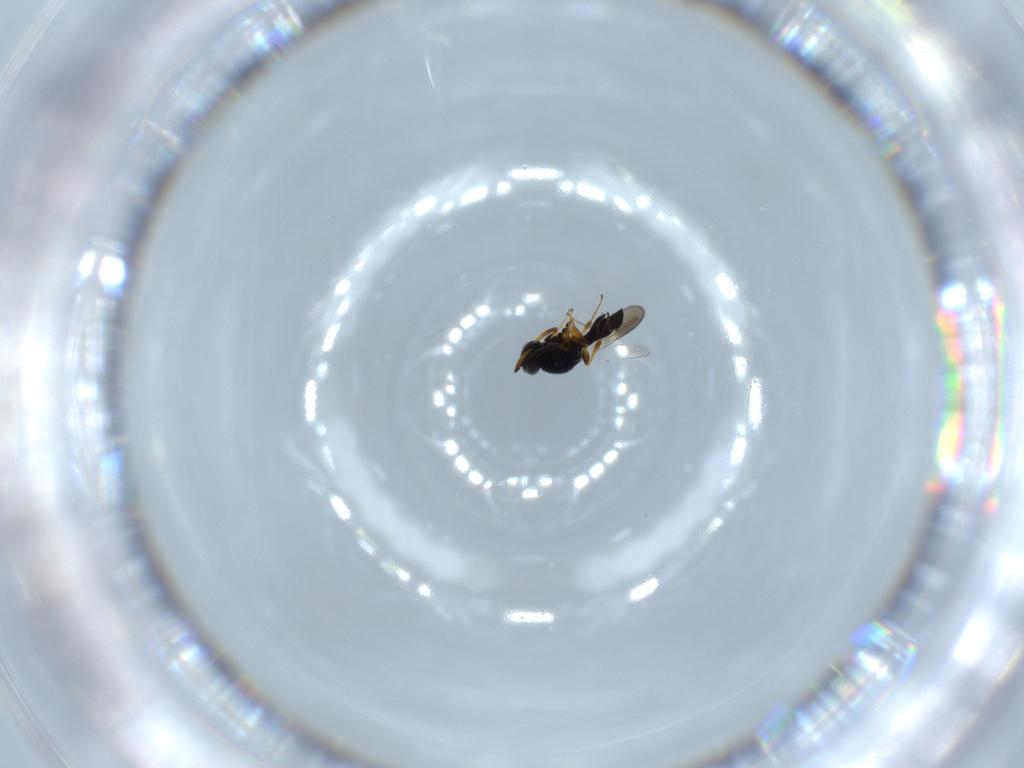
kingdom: Animalia
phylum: Arthropoda
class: Insecta
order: Hymenoptera
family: Platygastridae
